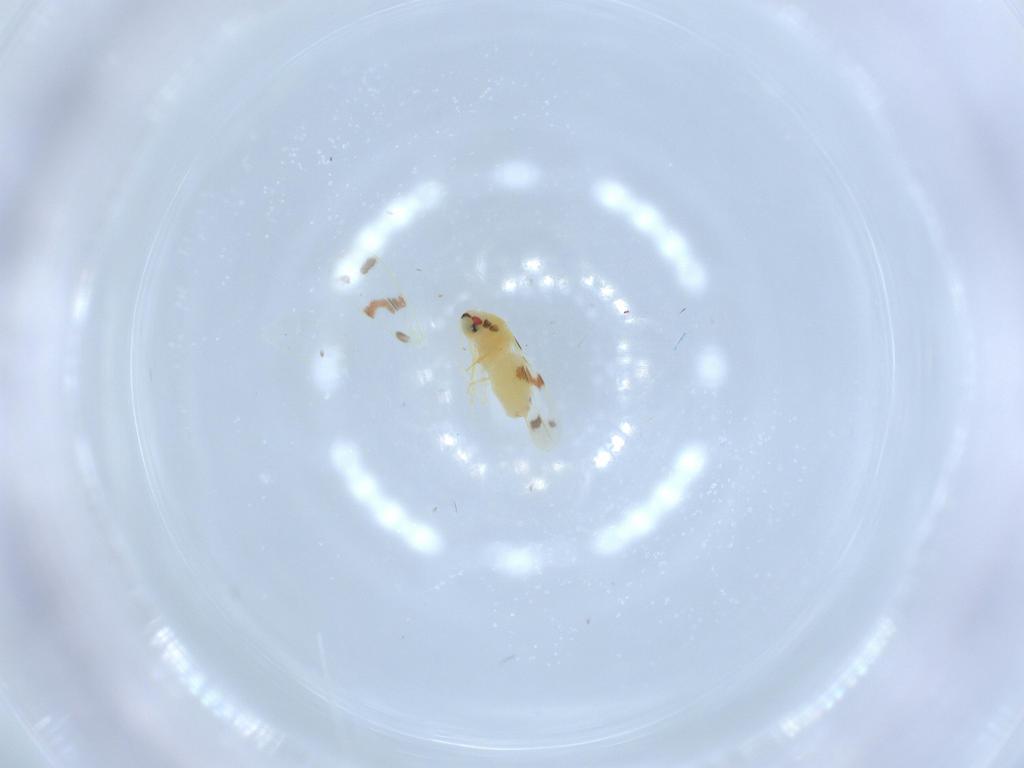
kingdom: Animalia
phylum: Arthropoda
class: Insecta
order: Hemiptera
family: Aleyrodidae
